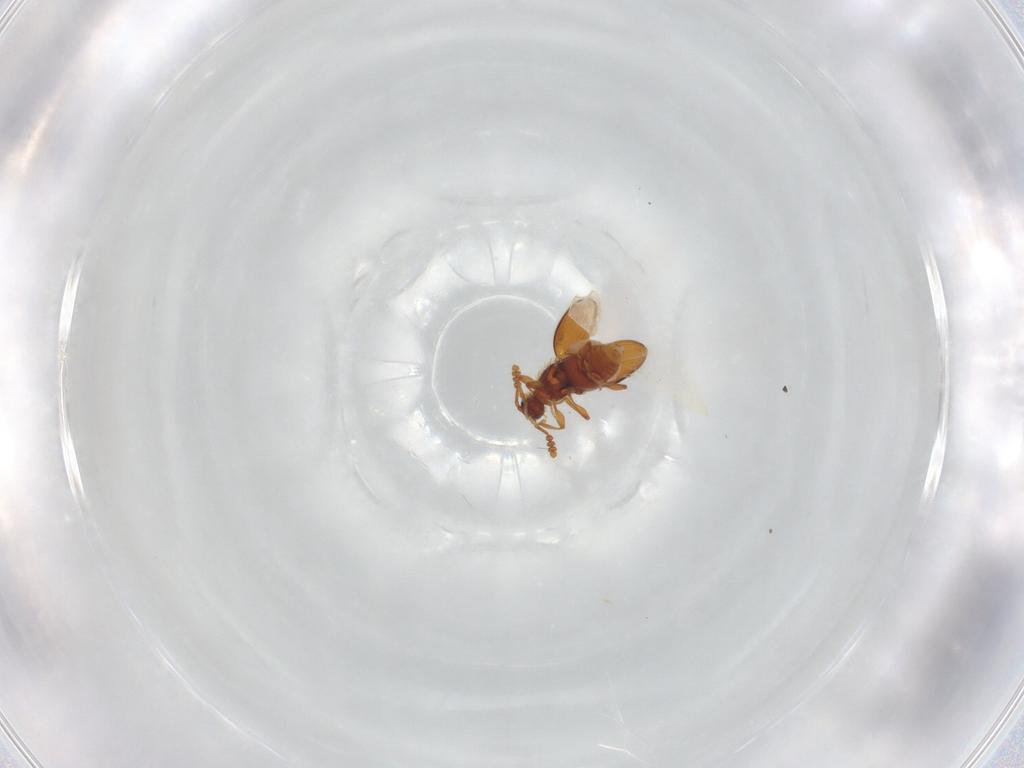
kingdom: Animalia
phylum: Arthropoda
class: Insecta
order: Coleoptera
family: Staphylinidae
